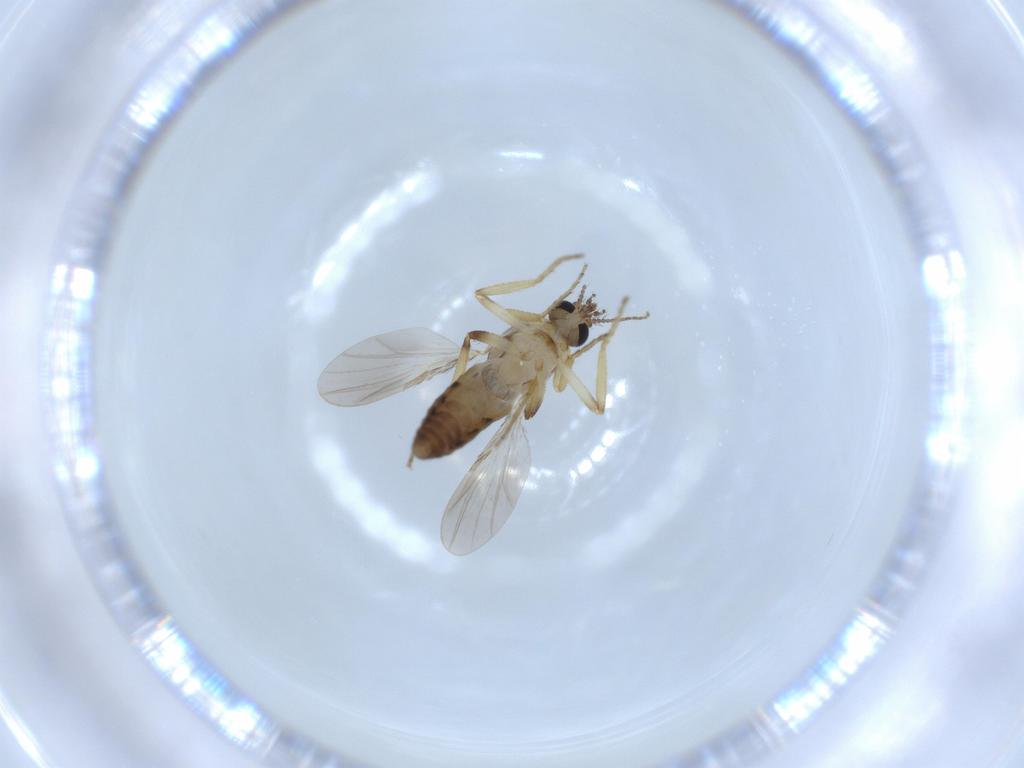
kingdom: Animalia
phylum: Arthropoda
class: Insecta
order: Diptera
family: Ceratopogonidae
